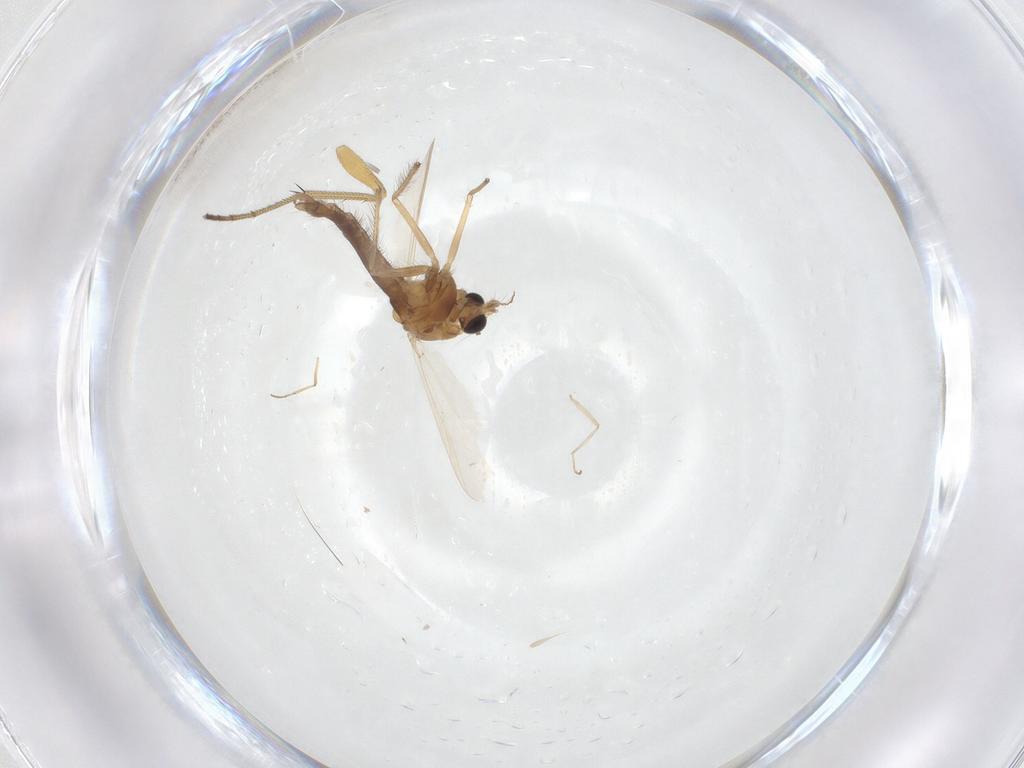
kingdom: Animalia
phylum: Arthropoda
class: Insecta
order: Diptera
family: Chironomidae
